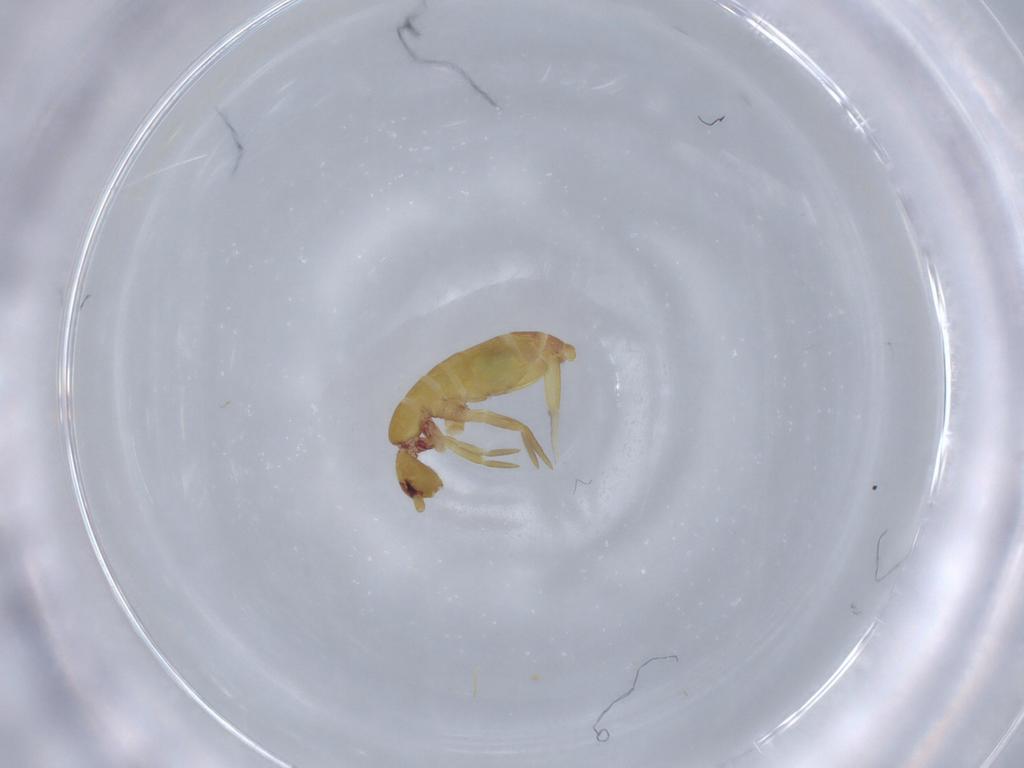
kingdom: Animalia
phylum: Arthropoda
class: Collembola
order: Entomobryomorpha
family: Tomoceridae
